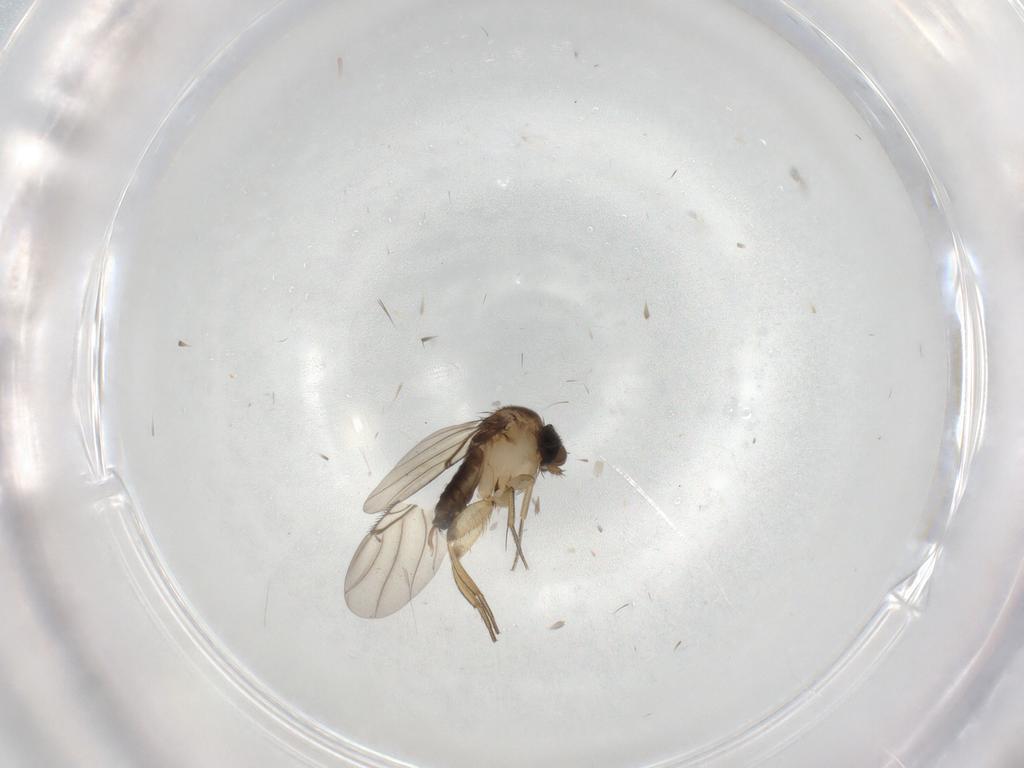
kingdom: Animalia
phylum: Arthropoda
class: Insecta
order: Diptera
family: Phoridae
